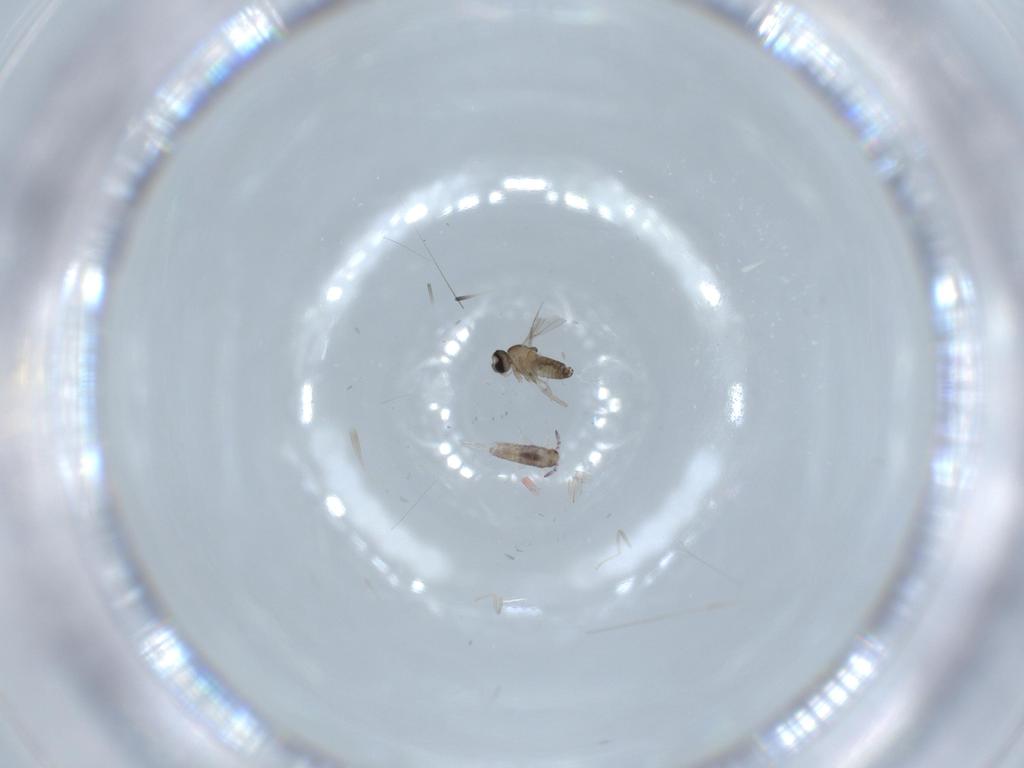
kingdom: Animalia
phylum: Arthropoda
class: Insecta
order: Diptera
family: Cecidomyiidae
